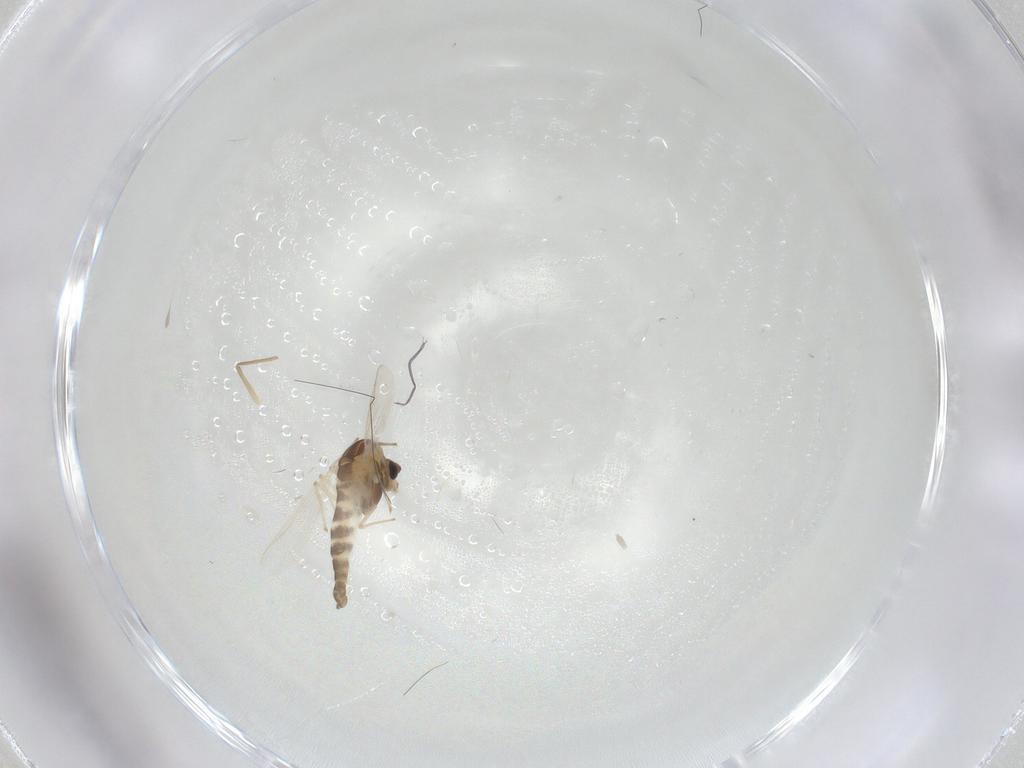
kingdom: Animalia
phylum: Arthropoda
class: Insecta
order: Diptera
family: Chironomidae
